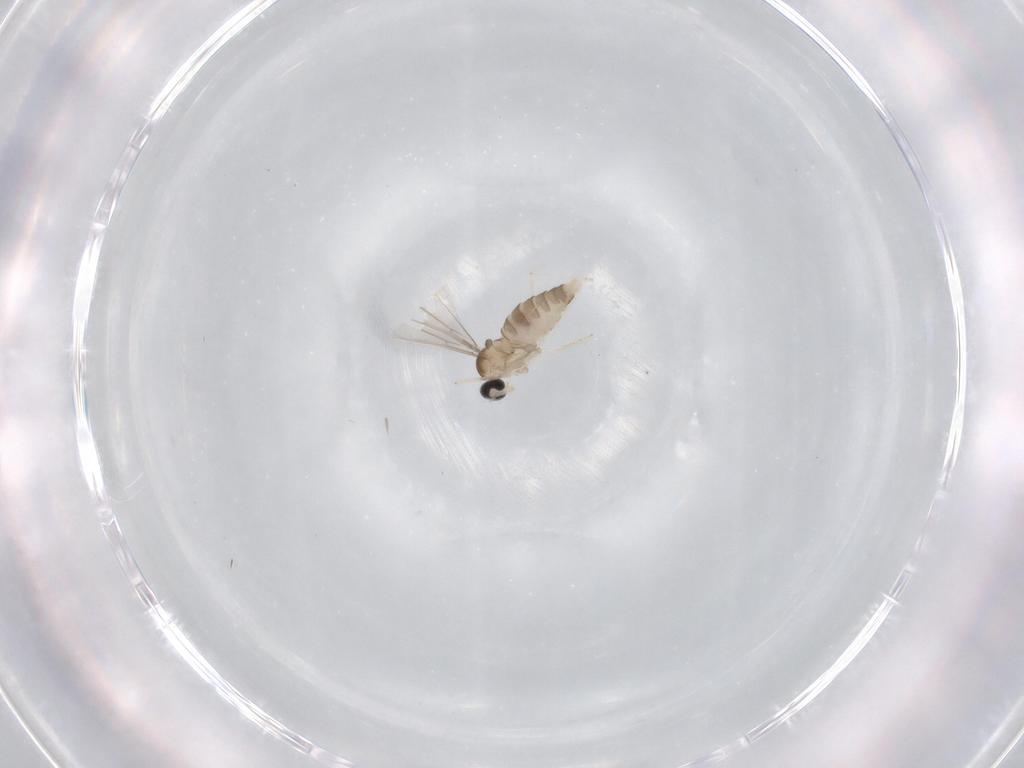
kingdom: Animalia
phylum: Arthropoda
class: Insecta
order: Diptera
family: Cecidomyiidae
